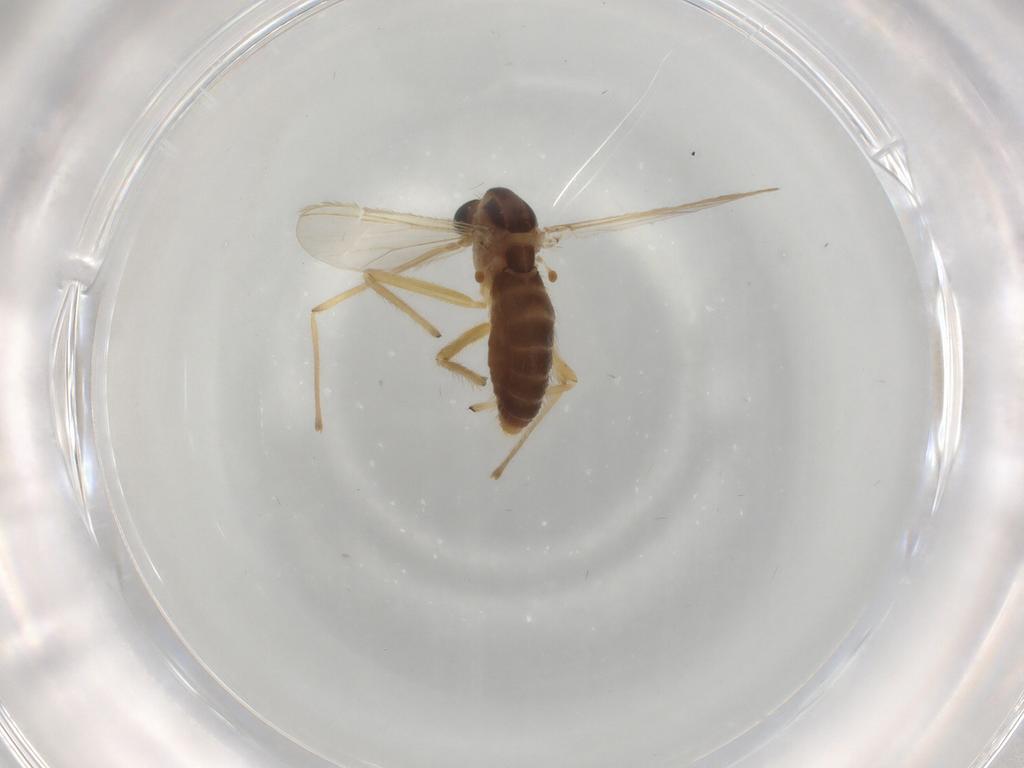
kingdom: Animalia
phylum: Arthropoda
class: Insecta
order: Diptera
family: Chironomidae
